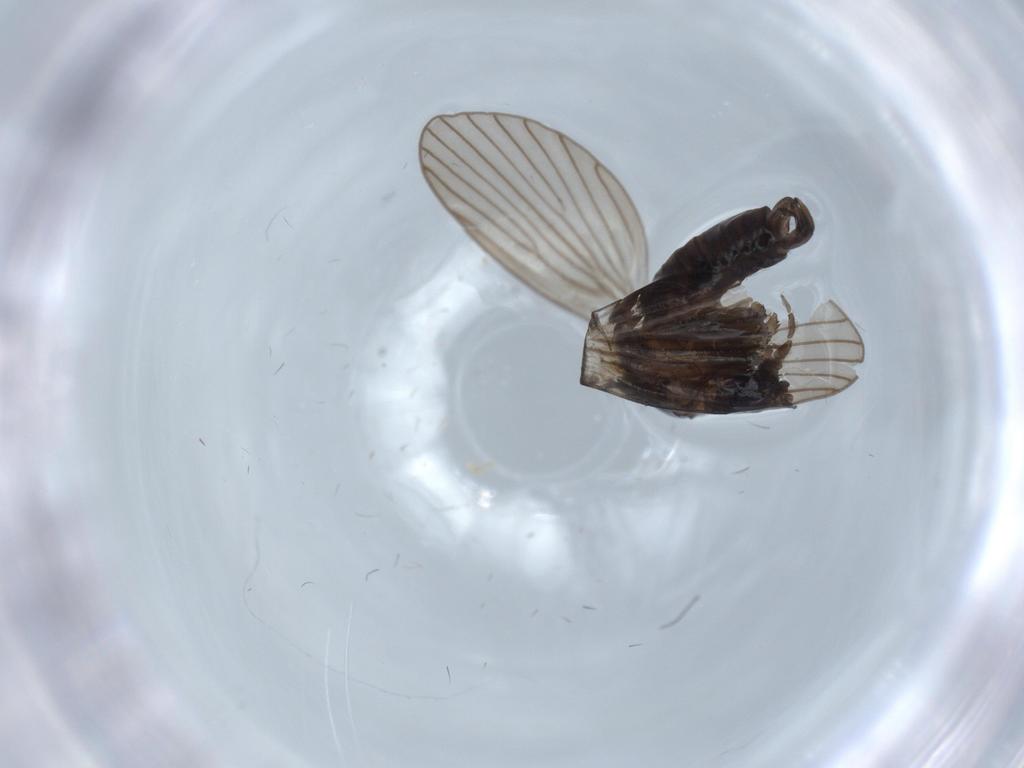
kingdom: Animalia
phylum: Arthropoda
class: Insecta
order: Diptera
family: Psychodidae
